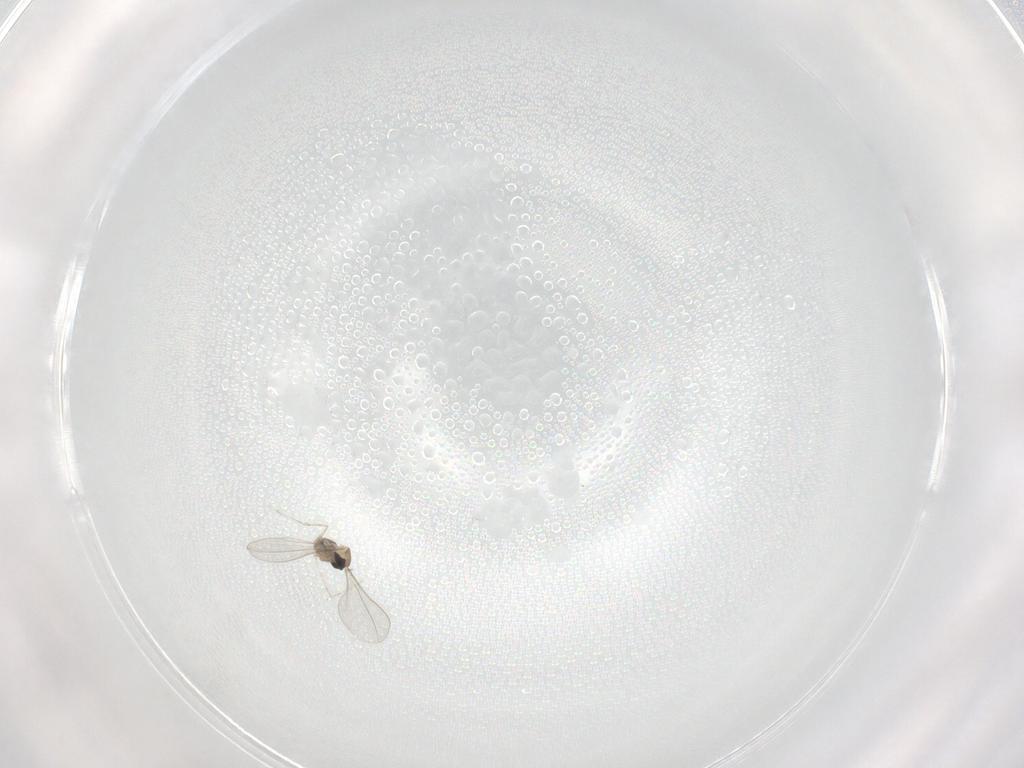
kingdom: Animalia
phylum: Arthropoda
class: Insecta
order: Diptera
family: Cecidomyiidae
